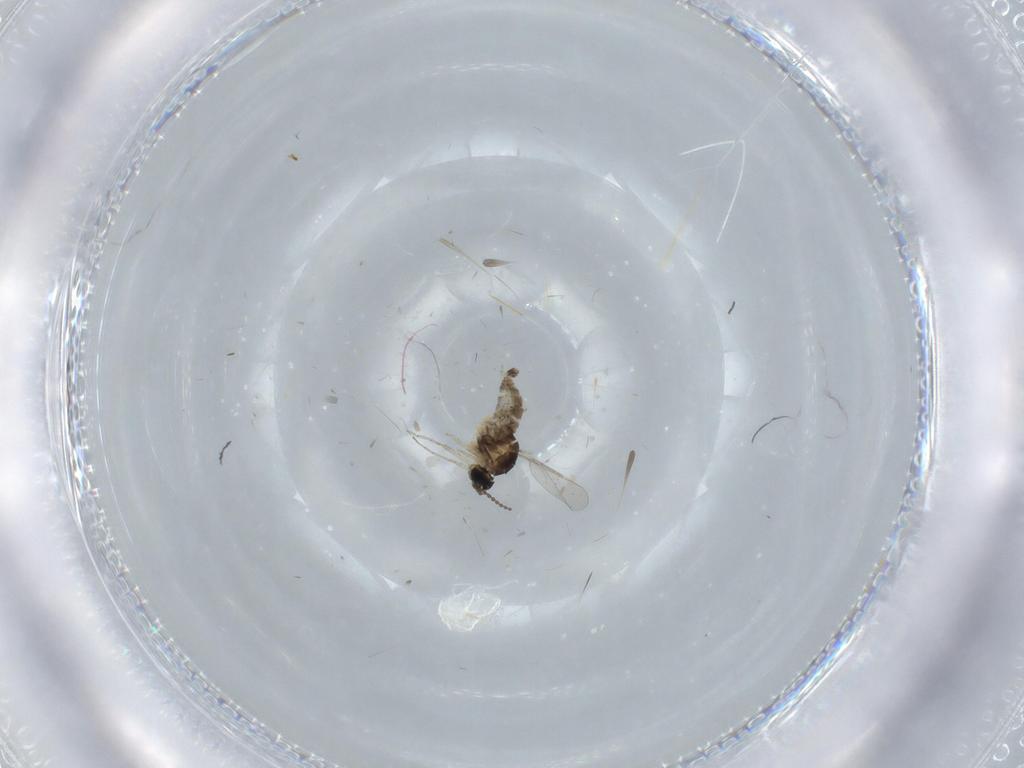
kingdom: Animalia
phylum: Arthropoda
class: Insecta
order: Diptera
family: Cecidomyiidae
